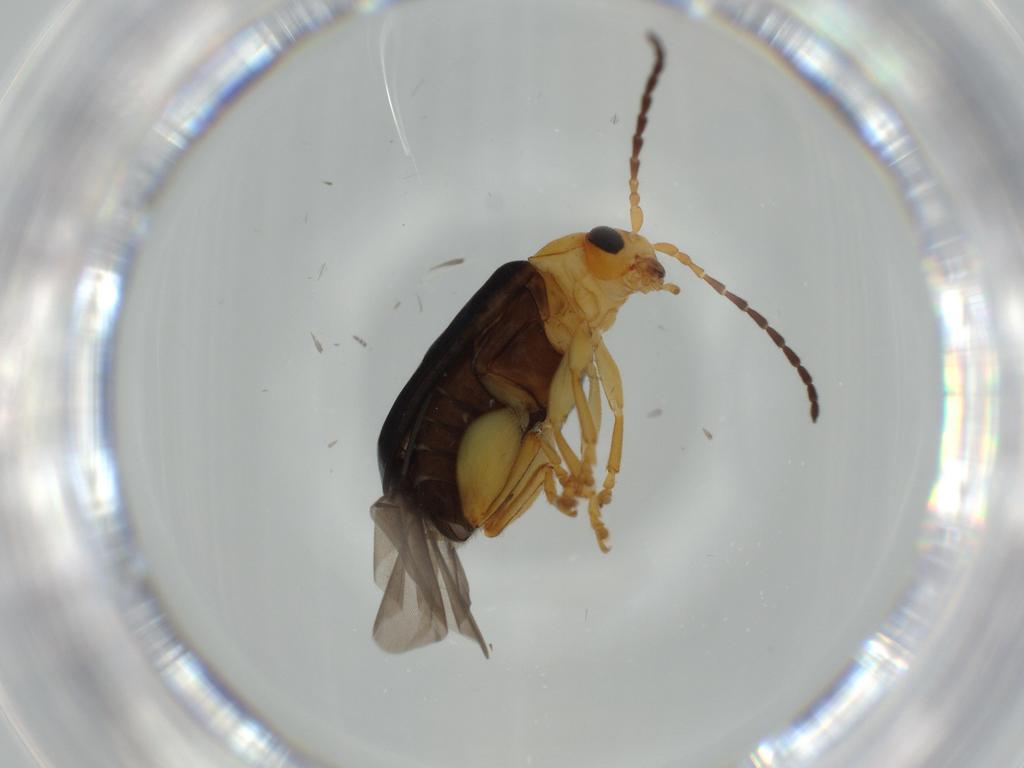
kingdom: Animalia
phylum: Arthropoda
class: Insecta
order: Coleoptera
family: Chrysomelidae
